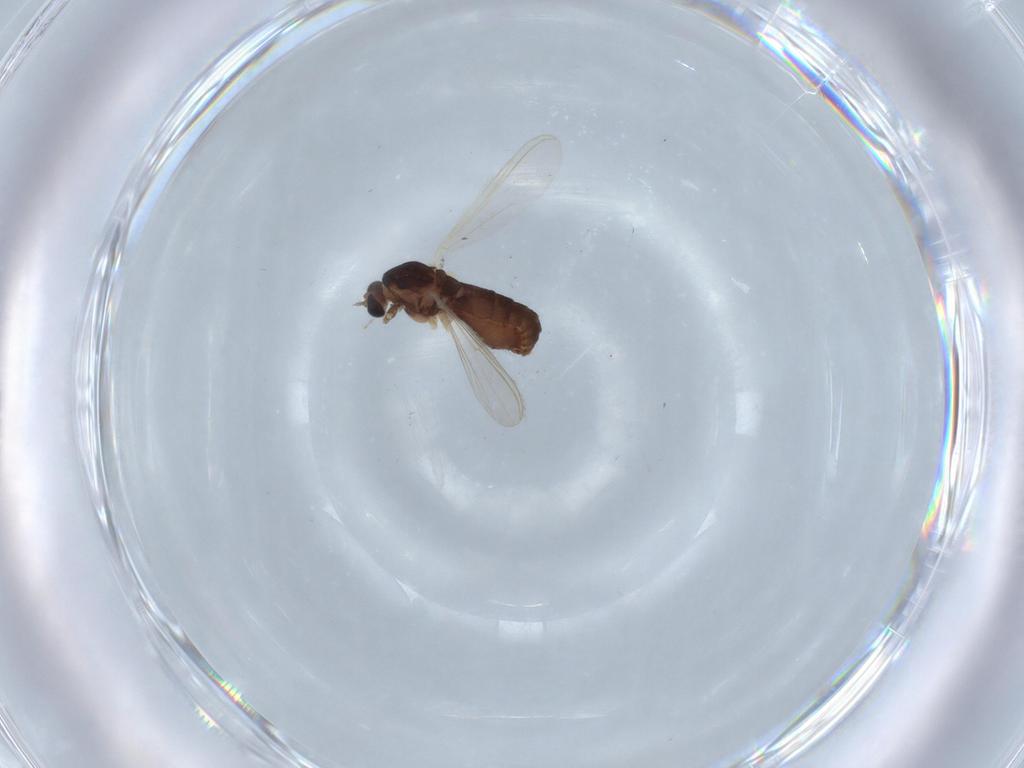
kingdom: Animalia
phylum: Arthropoda
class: Insecta
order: Diptera
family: Chironomidae
